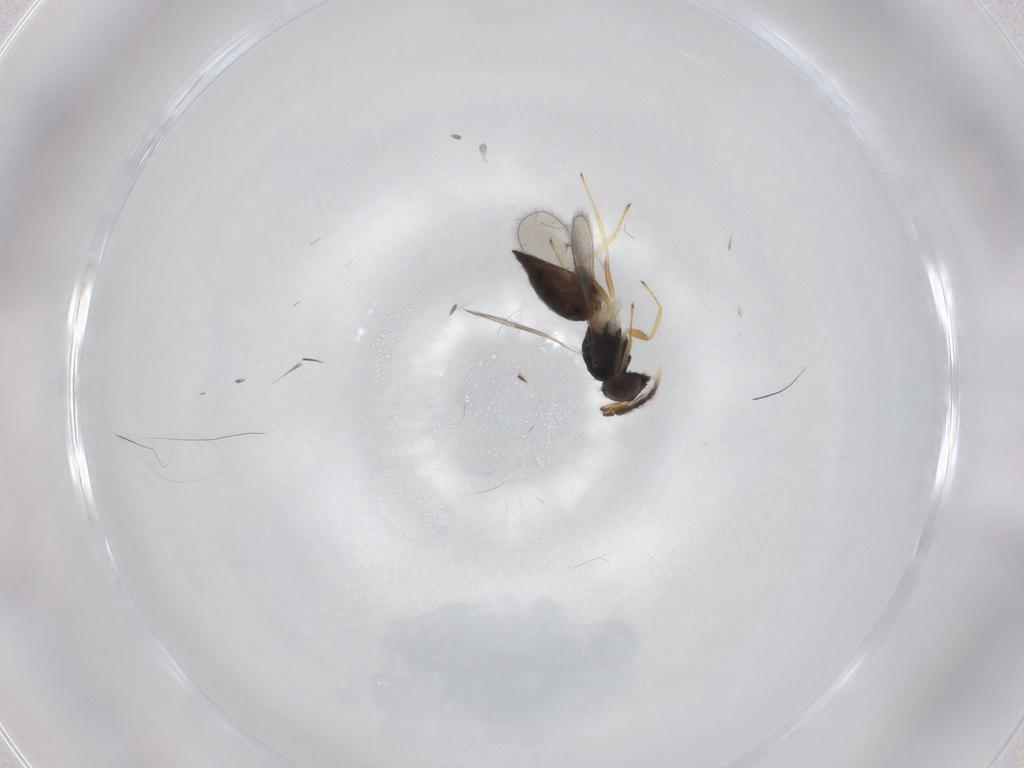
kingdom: Animalia
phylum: Arthropoda
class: Insecta
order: Hymenoptera
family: Eulophidae
